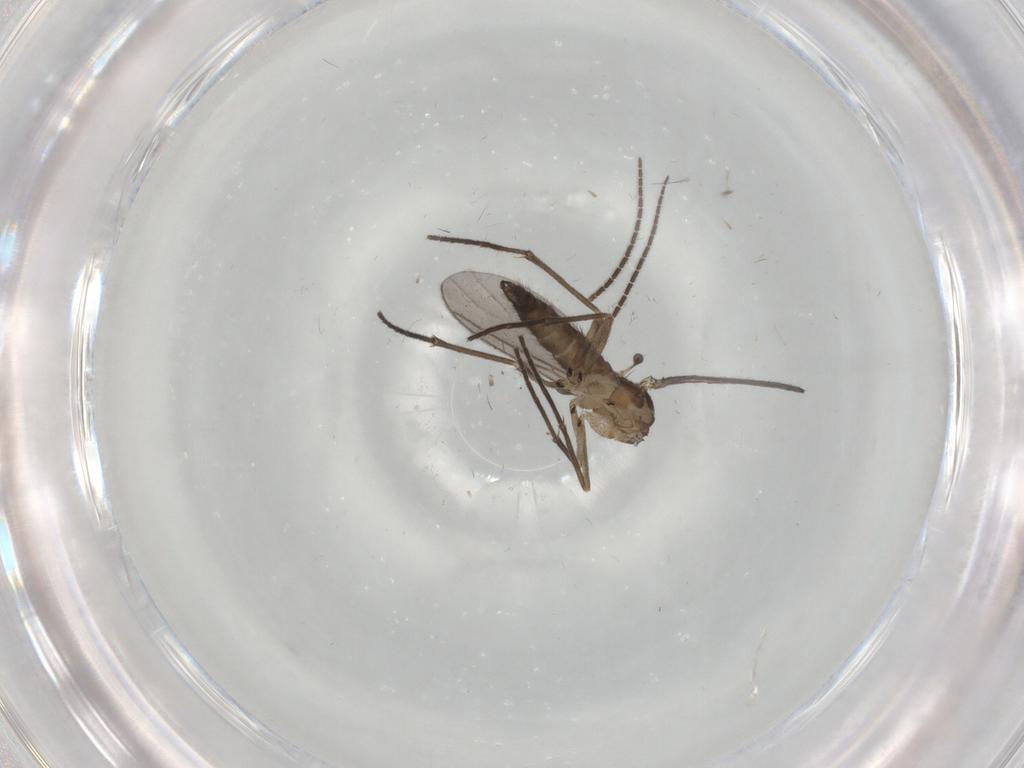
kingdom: Animalia
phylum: Arthropoda
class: Insecta
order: Diptera
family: Sciaridae
